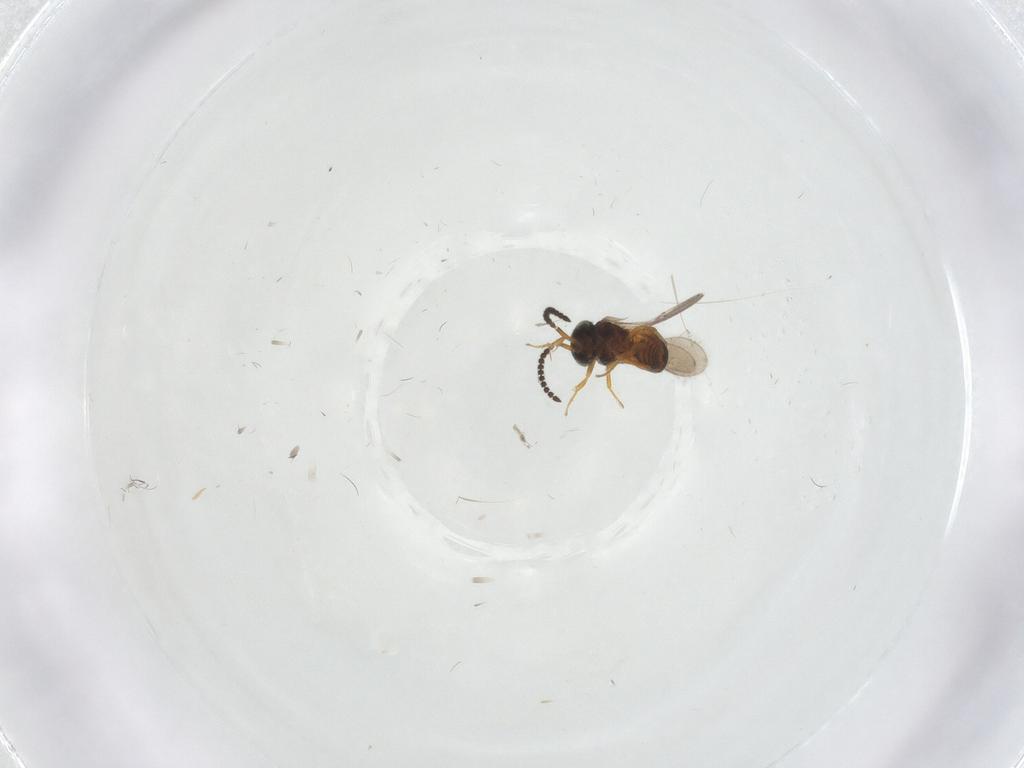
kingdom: Animalia
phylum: Arthropoda
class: Insecta
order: Hymenoptera
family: Scelionidae
